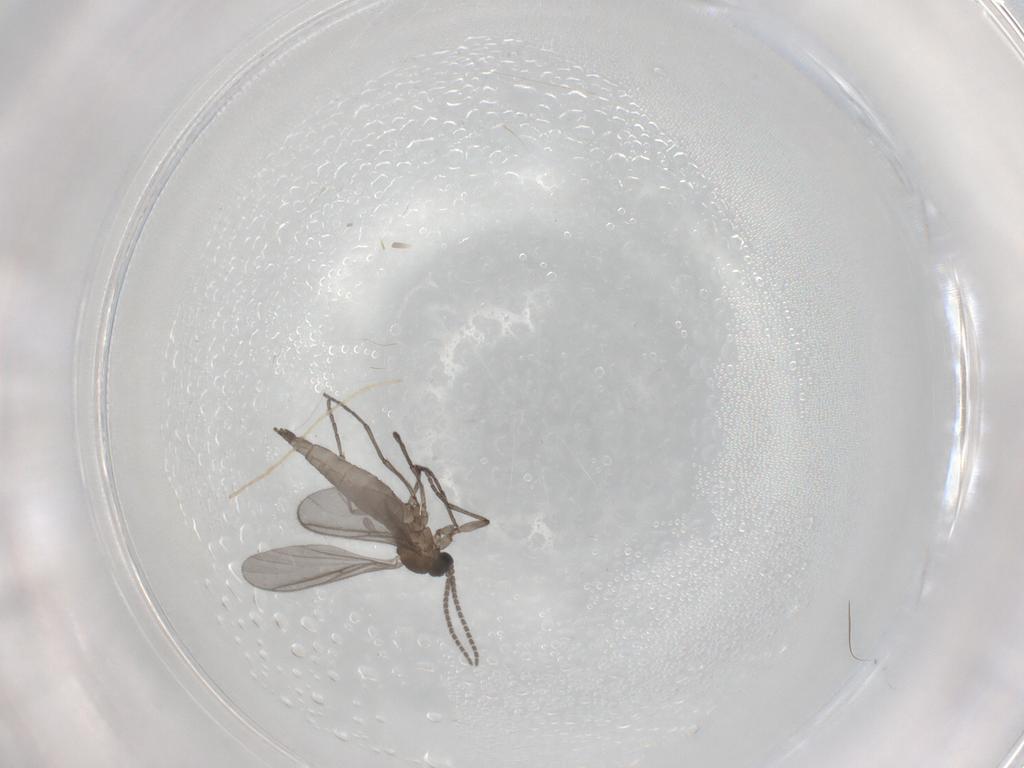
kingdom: Animalia
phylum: Arthropoda
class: Insecta
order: Diptera
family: Sciaridae
